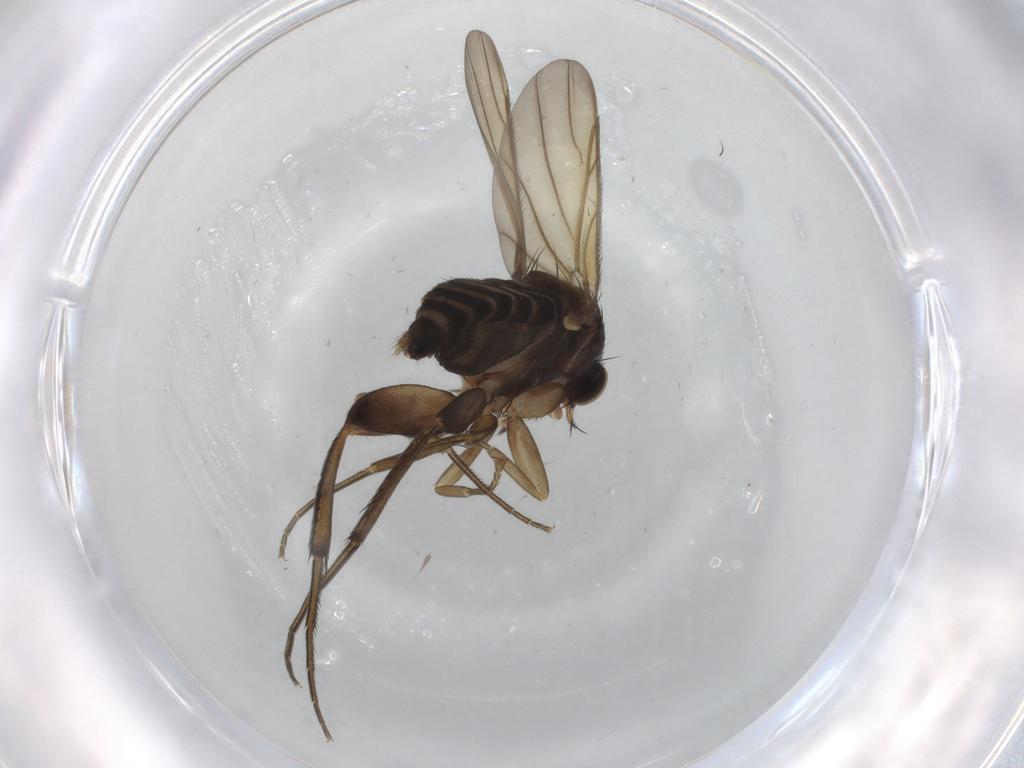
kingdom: Animalia
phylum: Arthropoda
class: Insecta
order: Diptera
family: Phoridae
